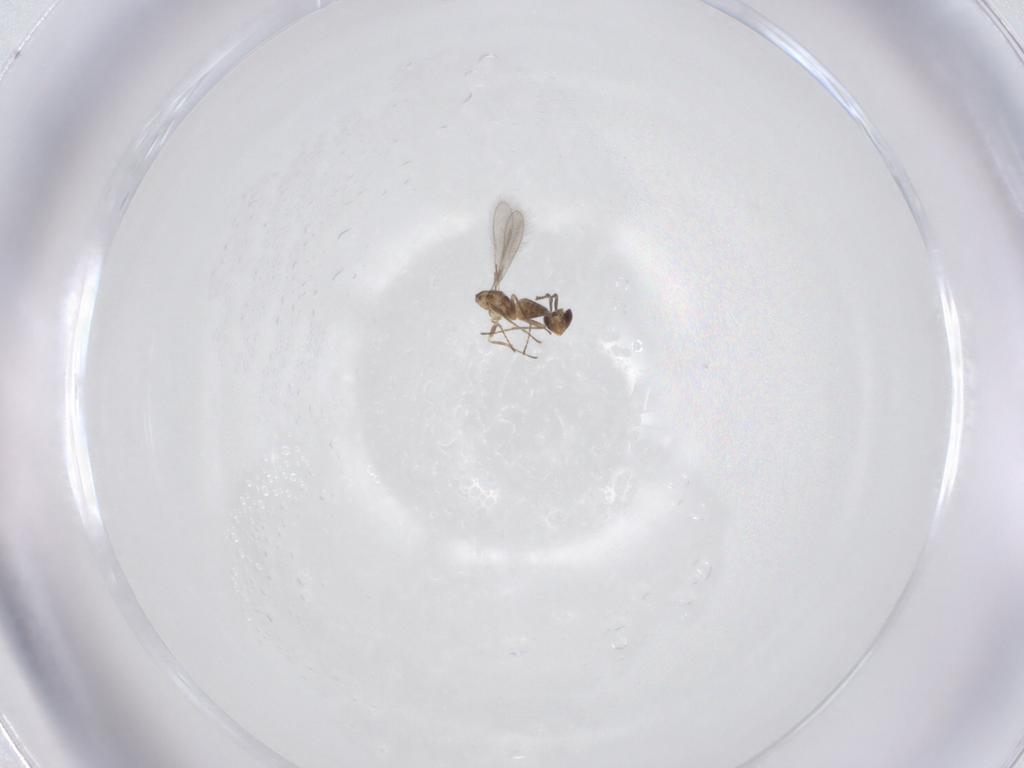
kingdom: Animalia
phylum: Arthropoda
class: Insecta
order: Hymenoptera
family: Mymaridae
